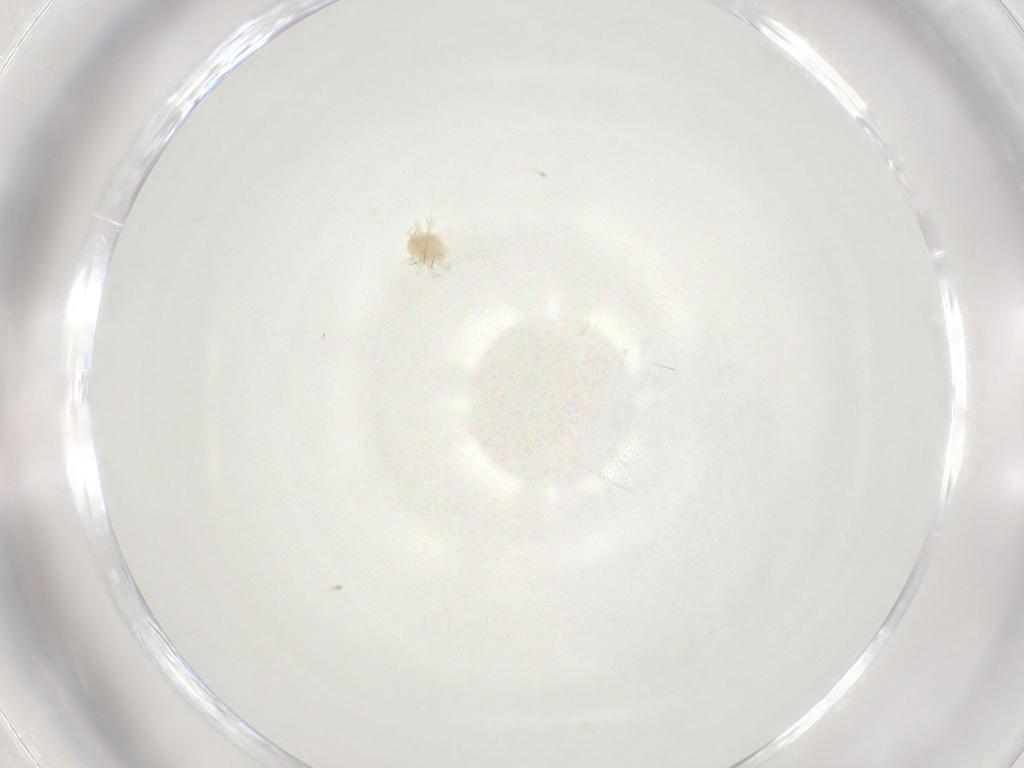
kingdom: Animalia
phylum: Arthropoda
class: Arachnida
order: Trombidiformes
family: Anystidae
